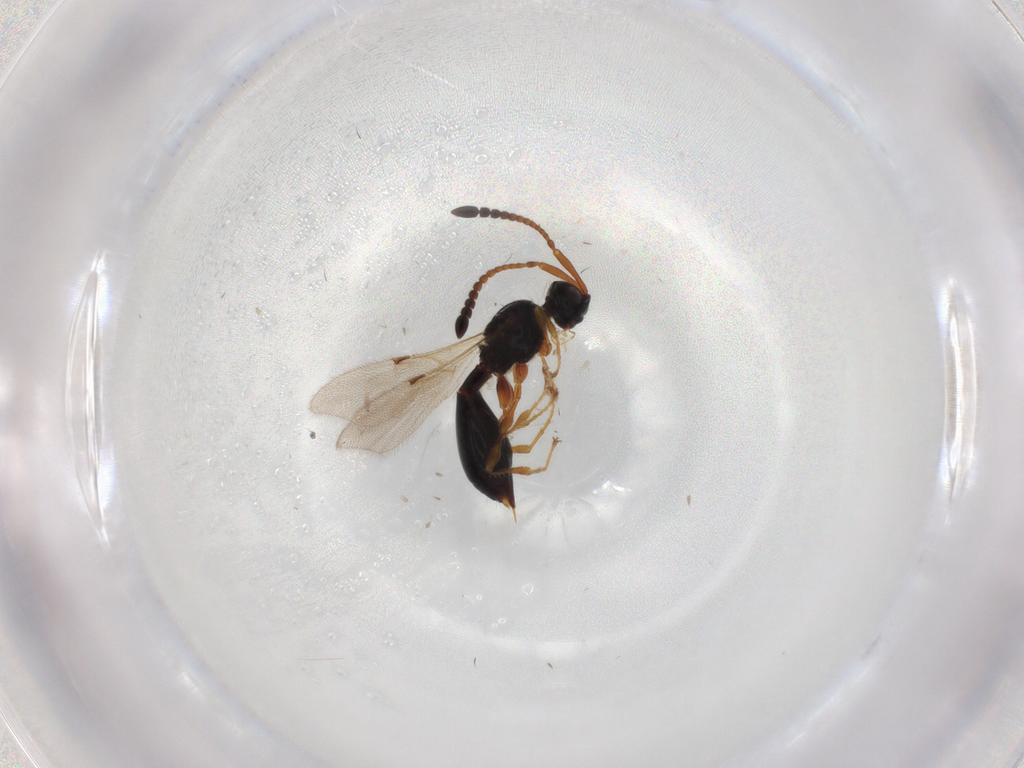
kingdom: Animalia
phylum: Arthropoda
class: Insecta
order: Hymenoptera
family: Diapriidae
